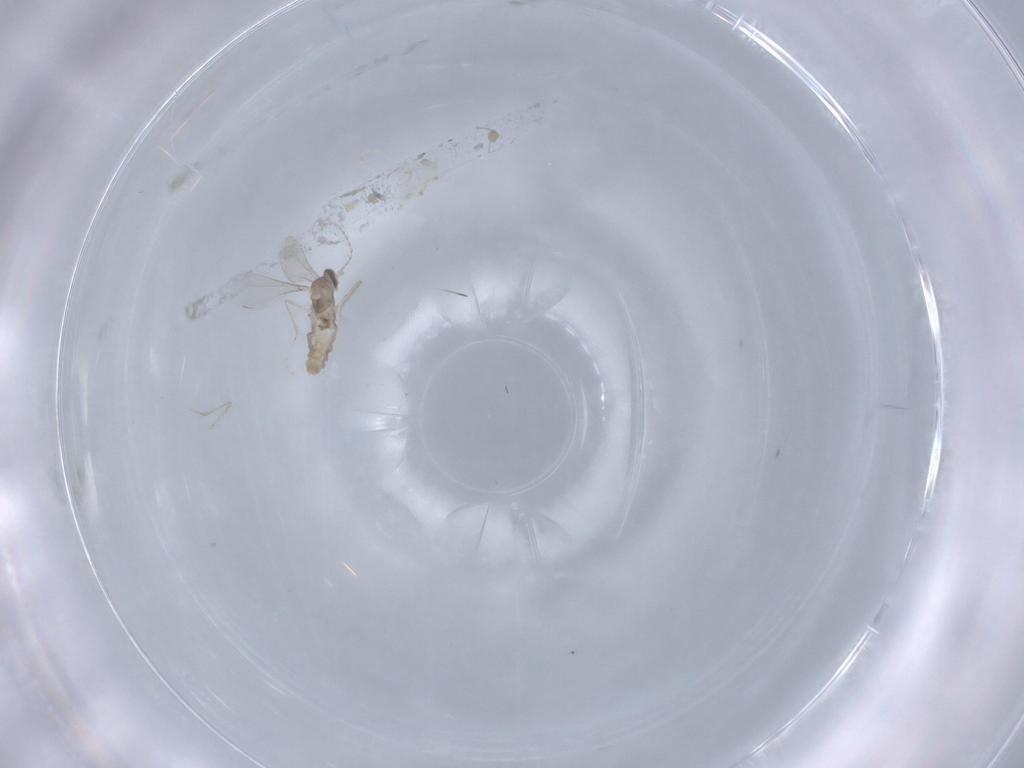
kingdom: Animalia
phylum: Arthropoda
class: Insecta
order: Diptera
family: Cecidomyiidae
